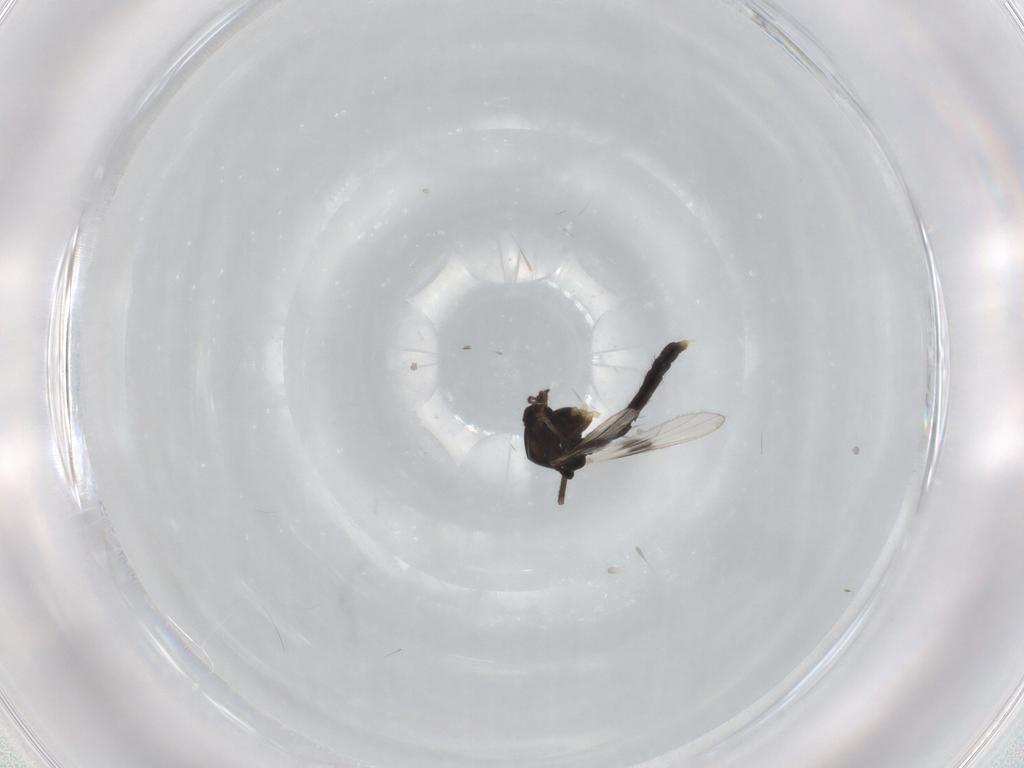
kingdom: Animalia
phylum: Arthropoda
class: Insecta
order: Diptera
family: Chironomidae
